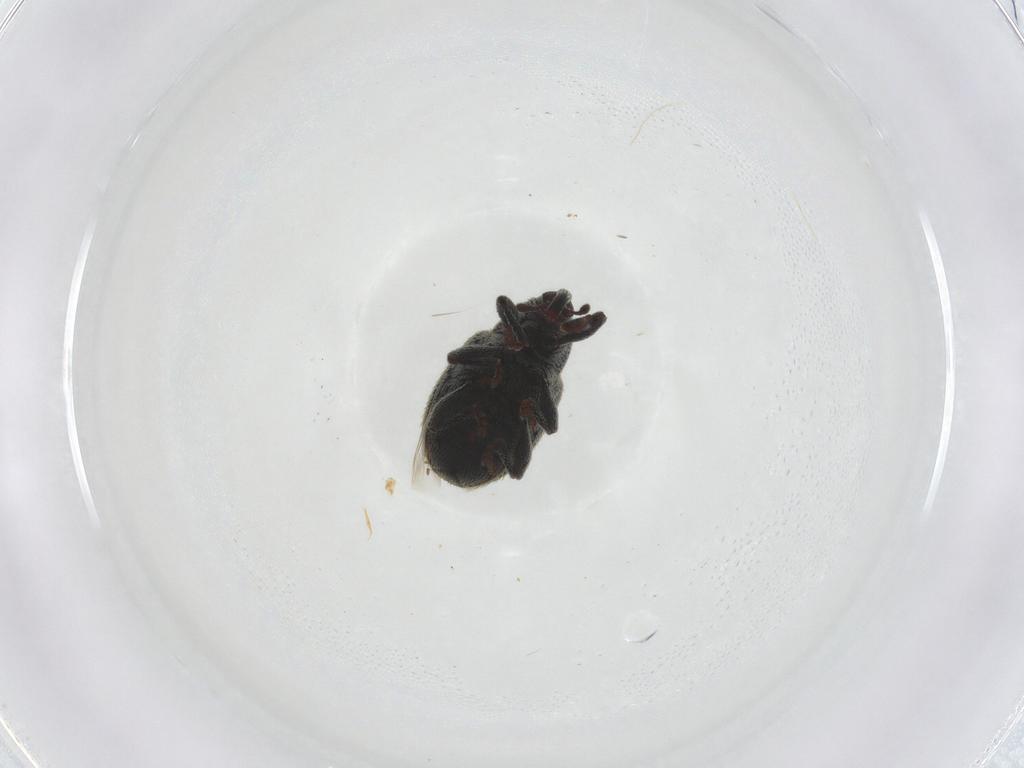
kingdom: Animalia
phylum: Arthropoda
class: Insecta
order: Coleoptera
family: Curculionidae
